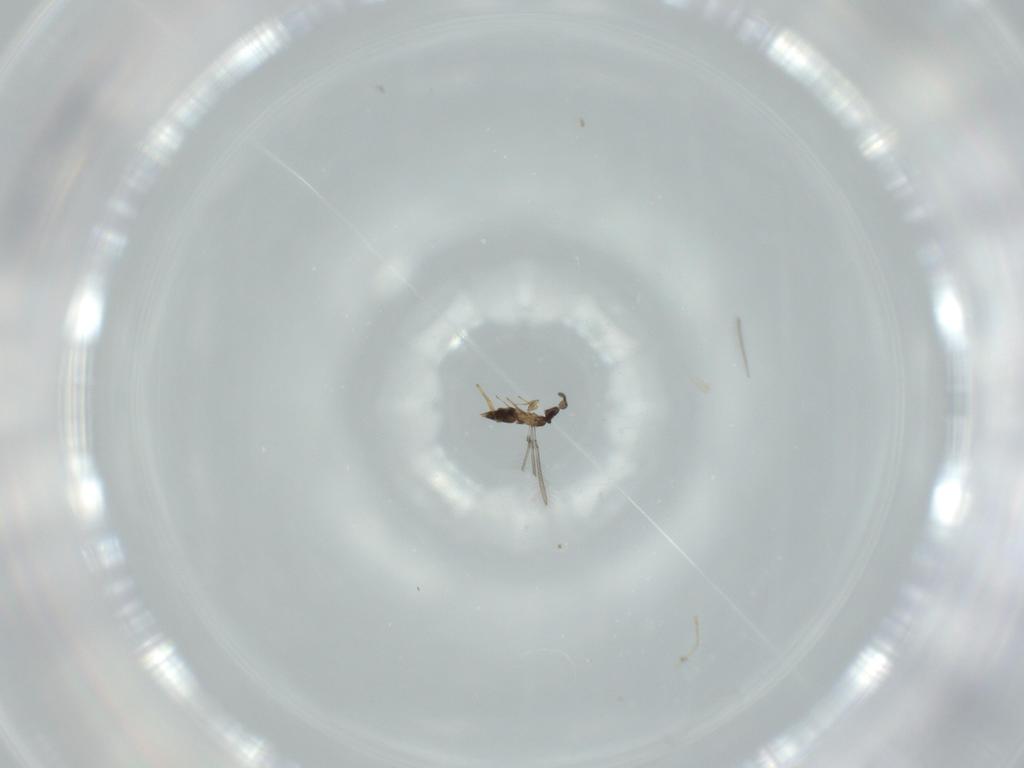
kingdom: Animalia
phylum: Arthropoda
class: Insecta
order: Hymenoptera
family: Mymaridae
